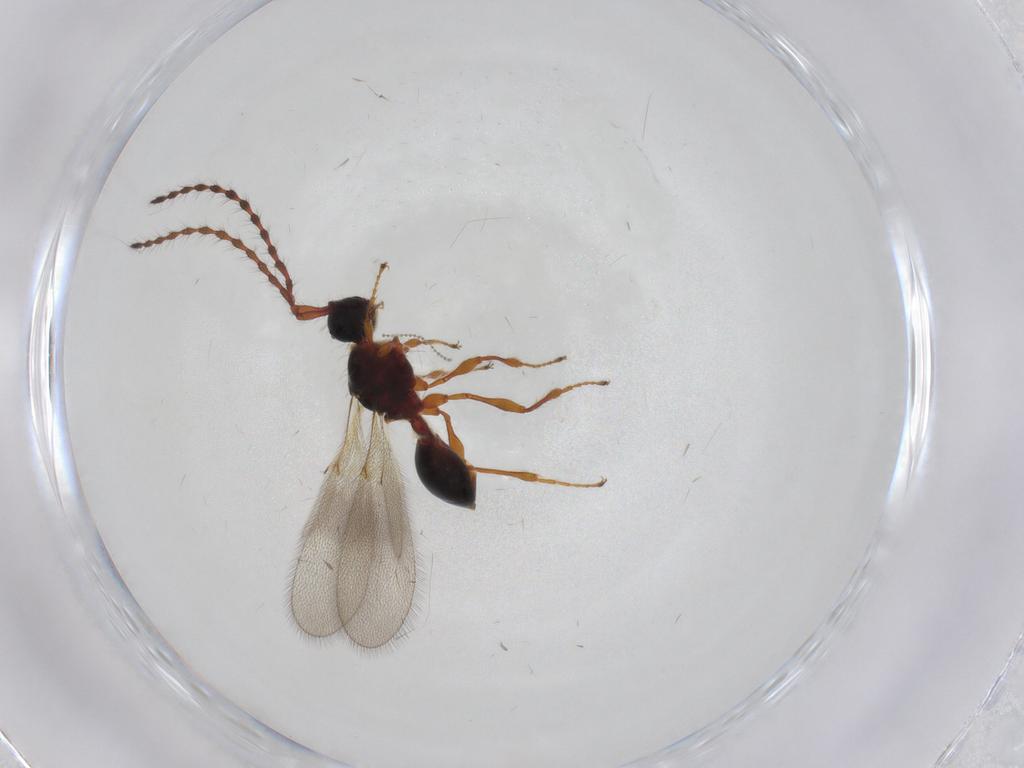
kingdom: Animalia
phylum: Arthropoda
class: Insecta
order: Hymenoptera
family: Diapriidae
